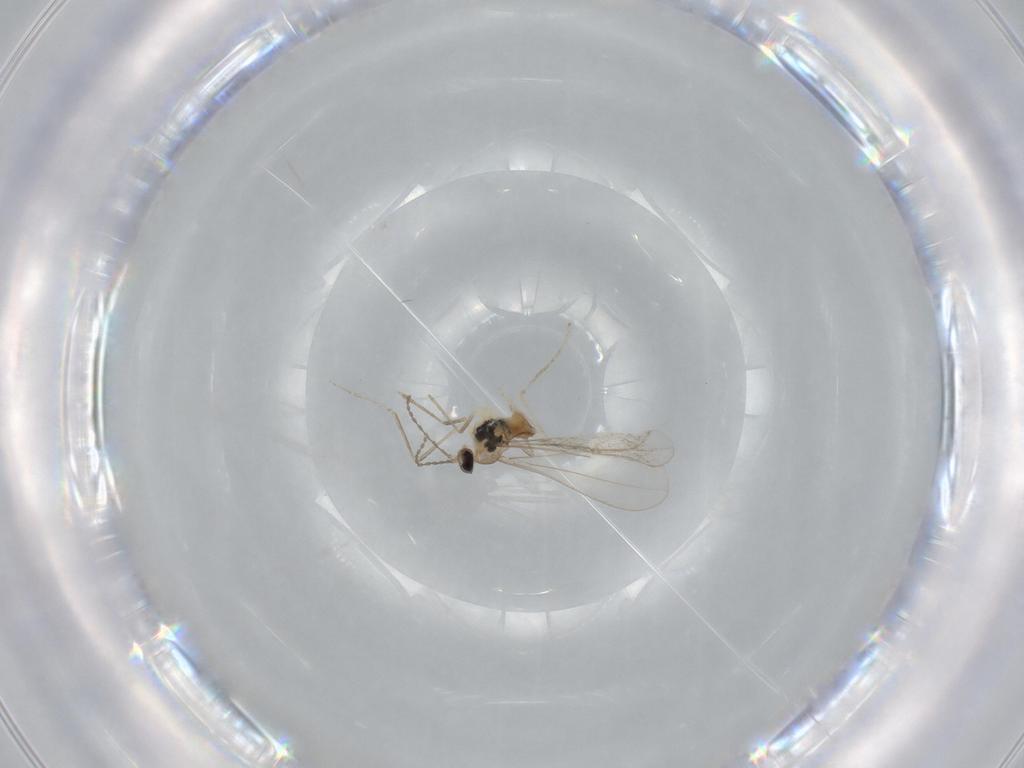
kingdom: Animalia
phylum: Arthropoda
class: Insecta
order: Diptera
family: Cecidomyiidae
